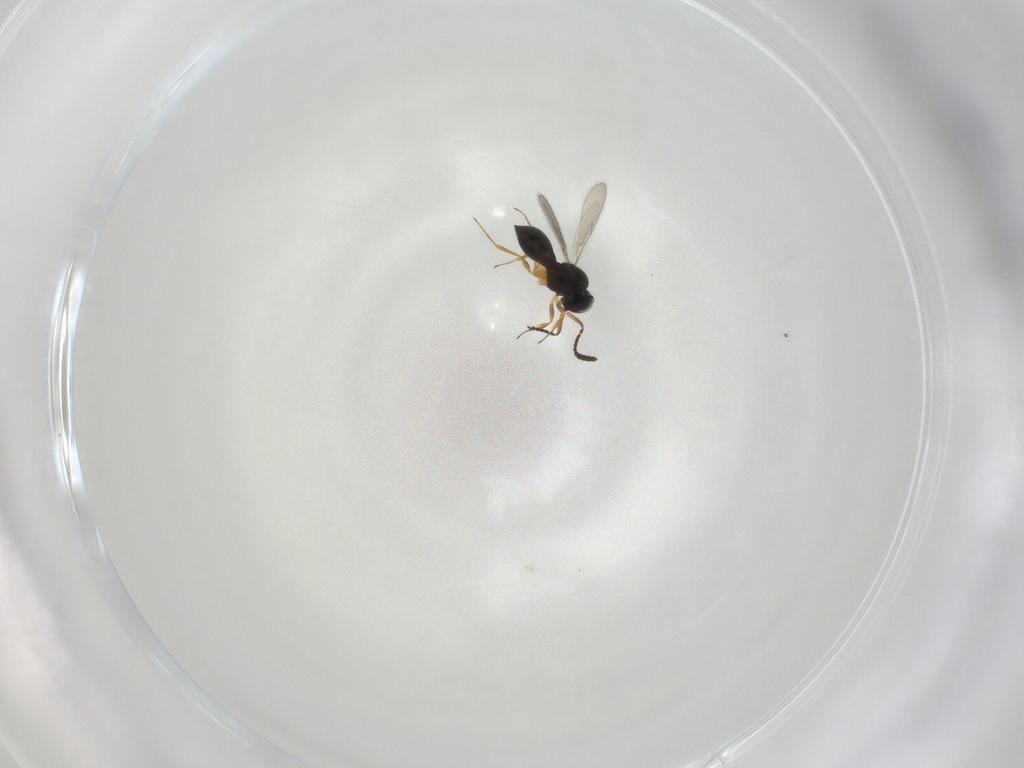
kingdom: Animalia
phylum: Arthropoda
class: Insecta
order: Hymenoptera
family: Scelionidae
